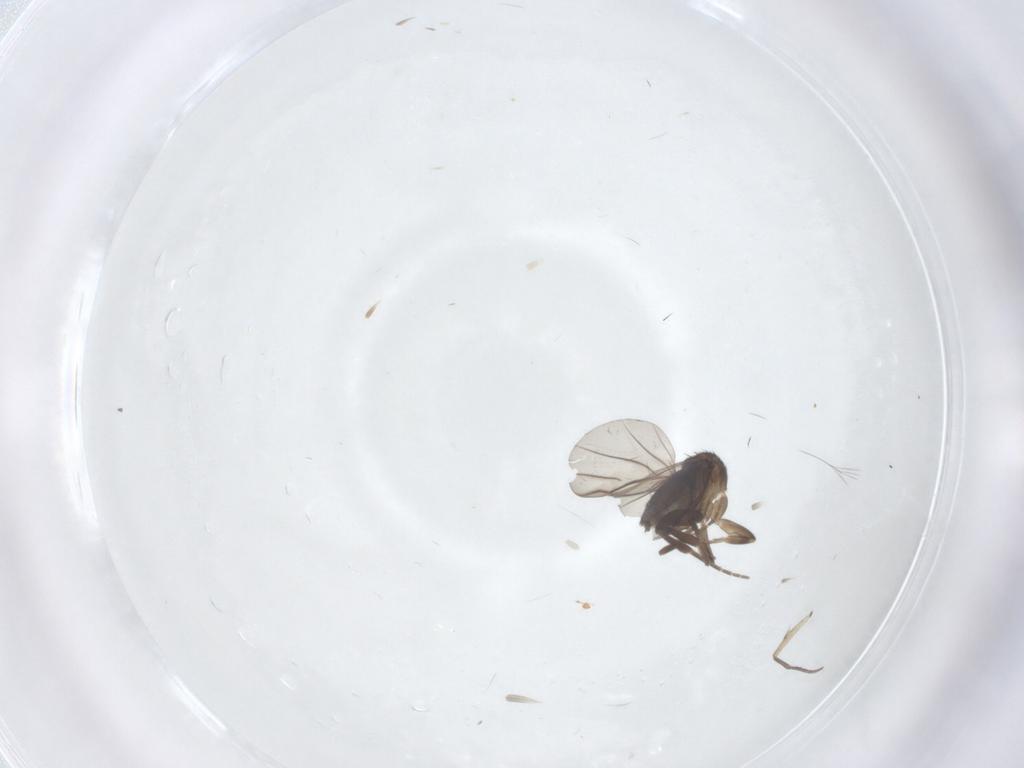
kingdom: Animalia
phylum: Arthropoda
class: Insecta
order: Diptera
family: Phoridae
